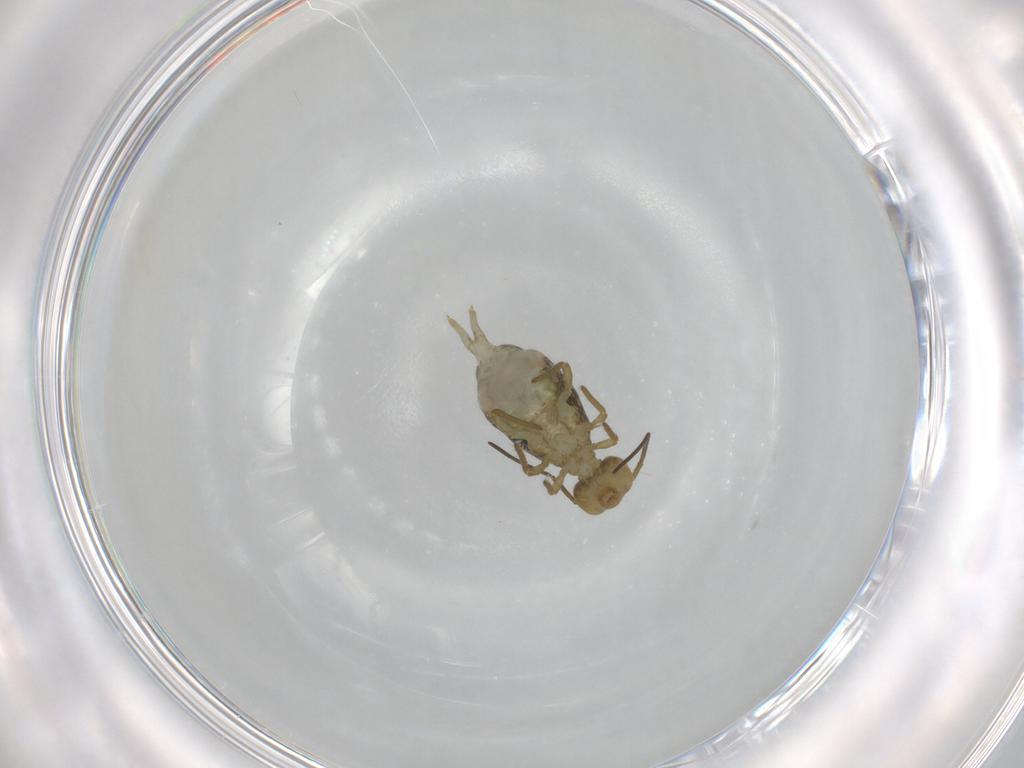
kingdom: Animalia
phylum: Arthropoda
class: Collembola
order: Symphypleona
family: Sminthuridae
